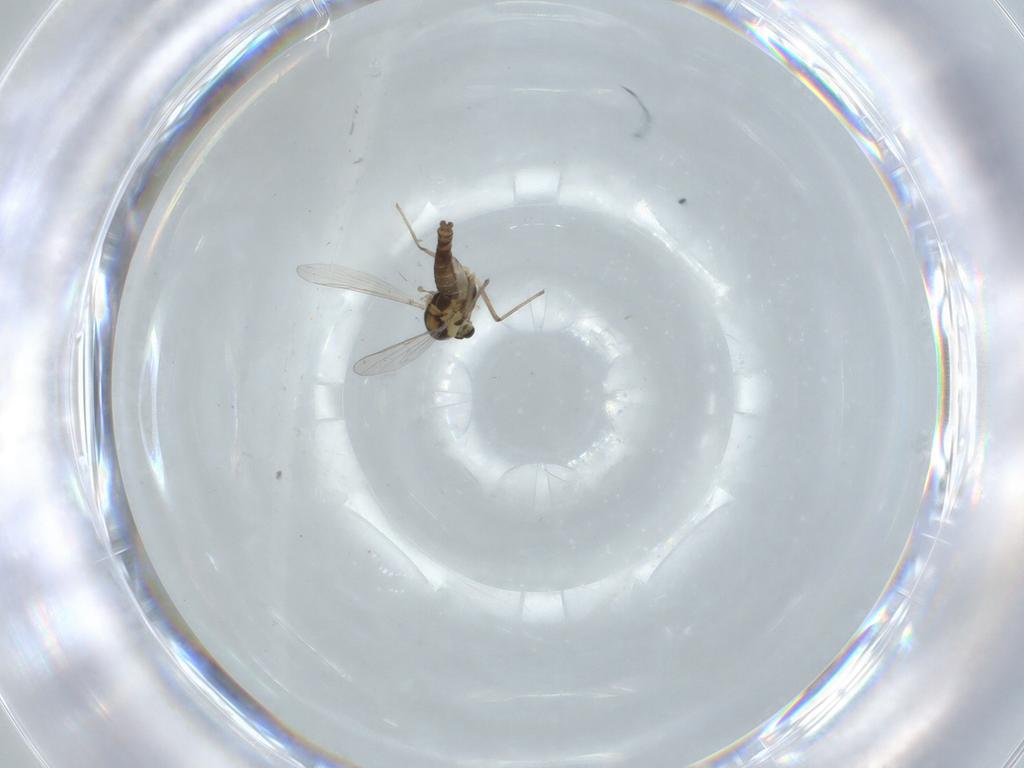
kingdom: Animalia
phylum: Arthropoda
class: Insecta
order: Diptera
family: Chironomidae
